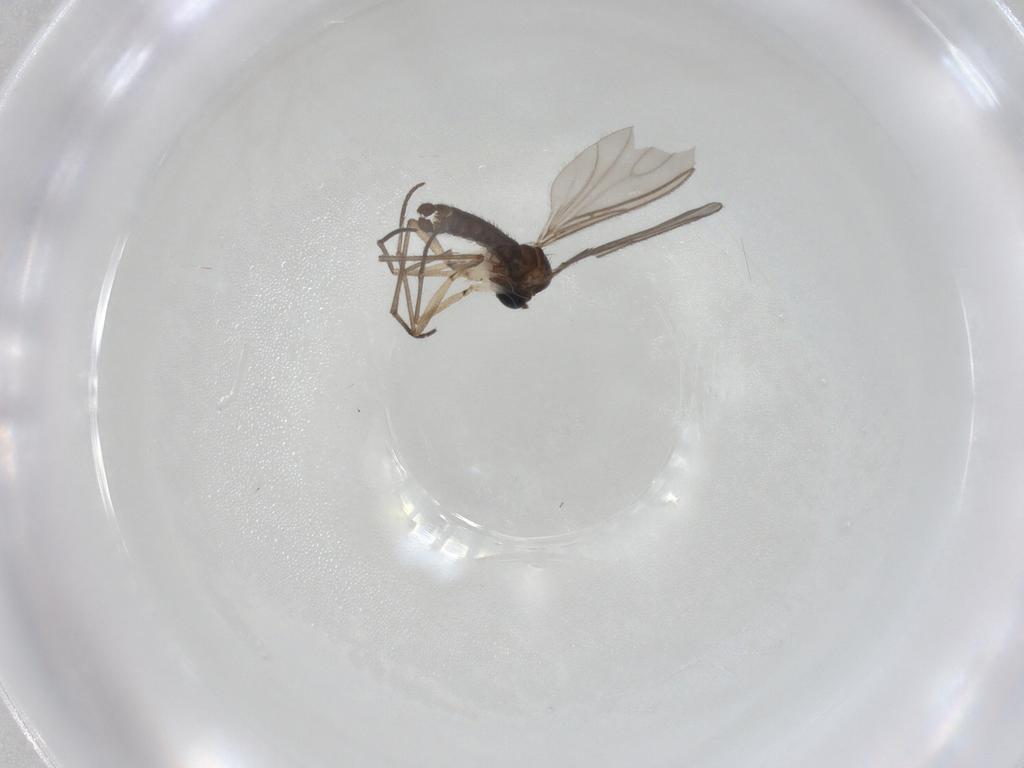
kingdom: Animalia
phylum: Arthropoda
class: Insecta
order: Diptera
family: Sciaridae
